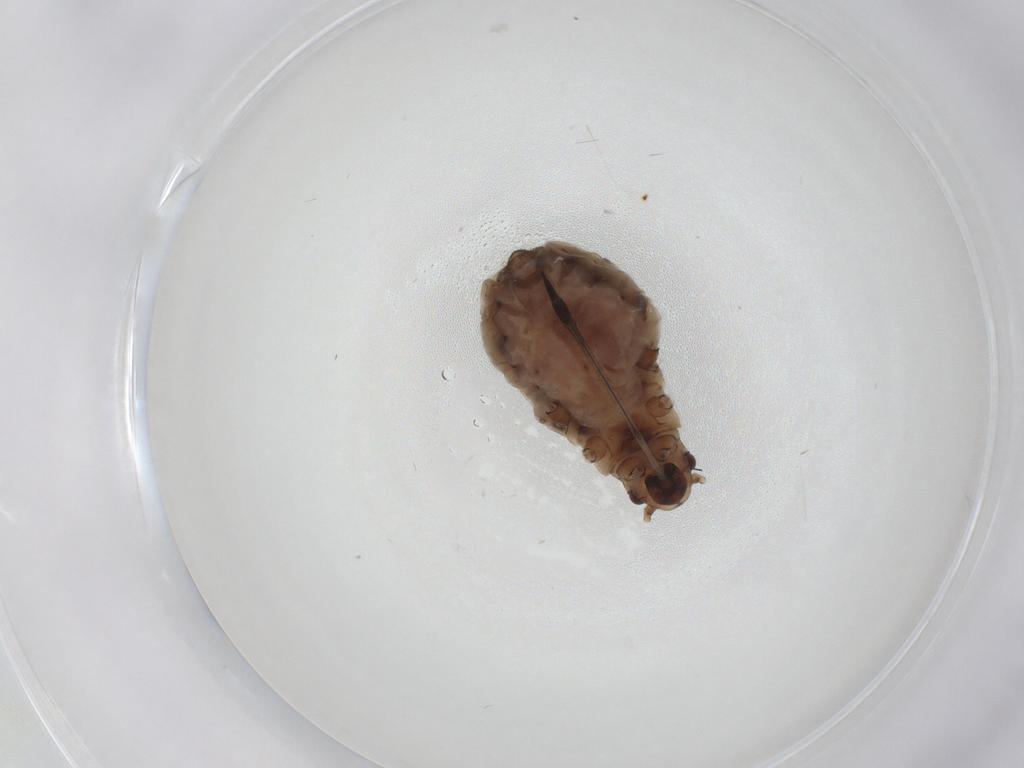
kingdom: Animalia
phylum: Arthropoda
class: Insecta
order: Hemiptera
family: Aphididae
